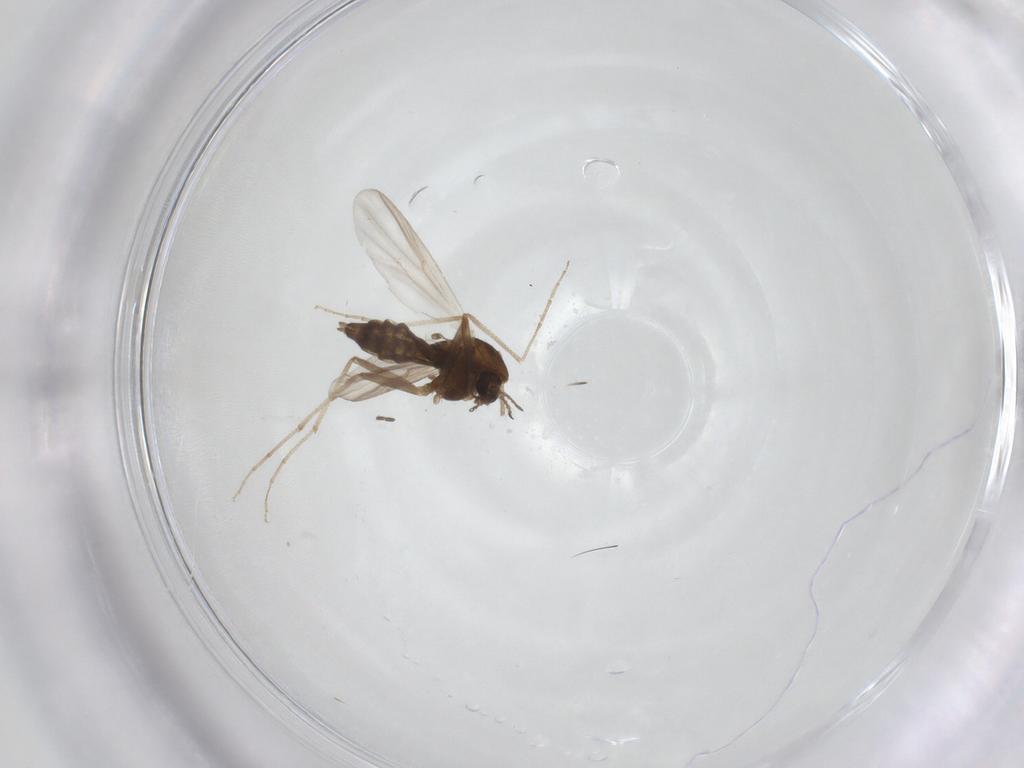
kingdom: Animalia
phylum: Arthropoda
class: Insecta
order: Diptera
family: Chironomidae
